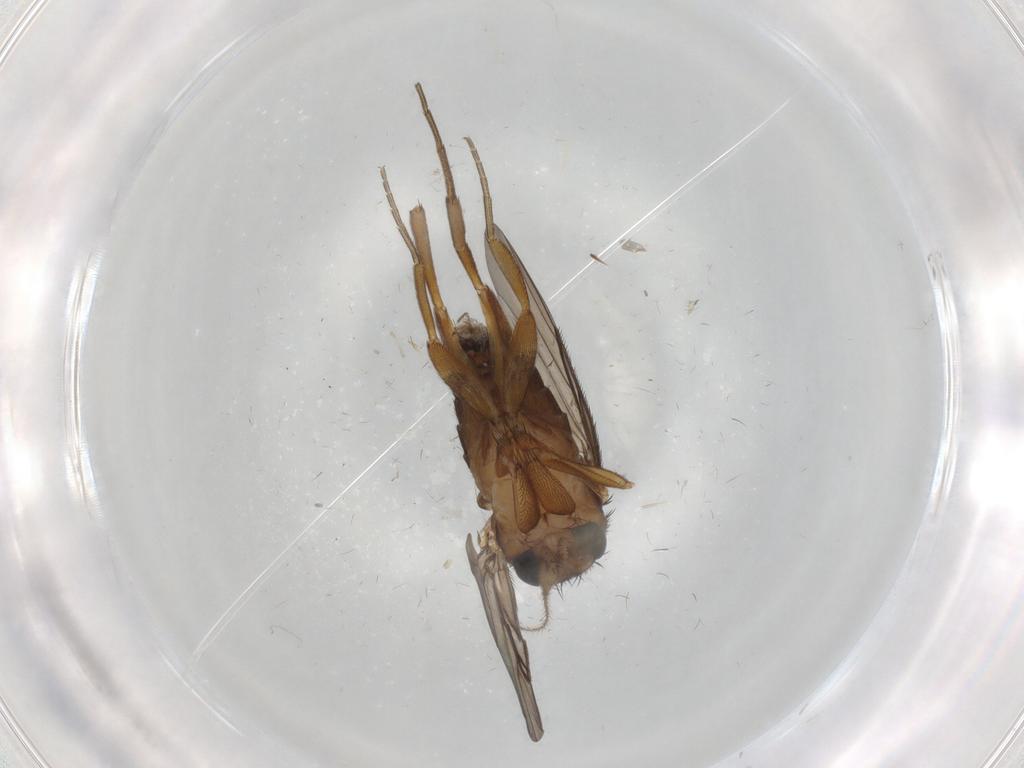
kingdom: Animalia
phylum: Arthropoda
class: Insecta
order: Diptera
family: Phoridae
